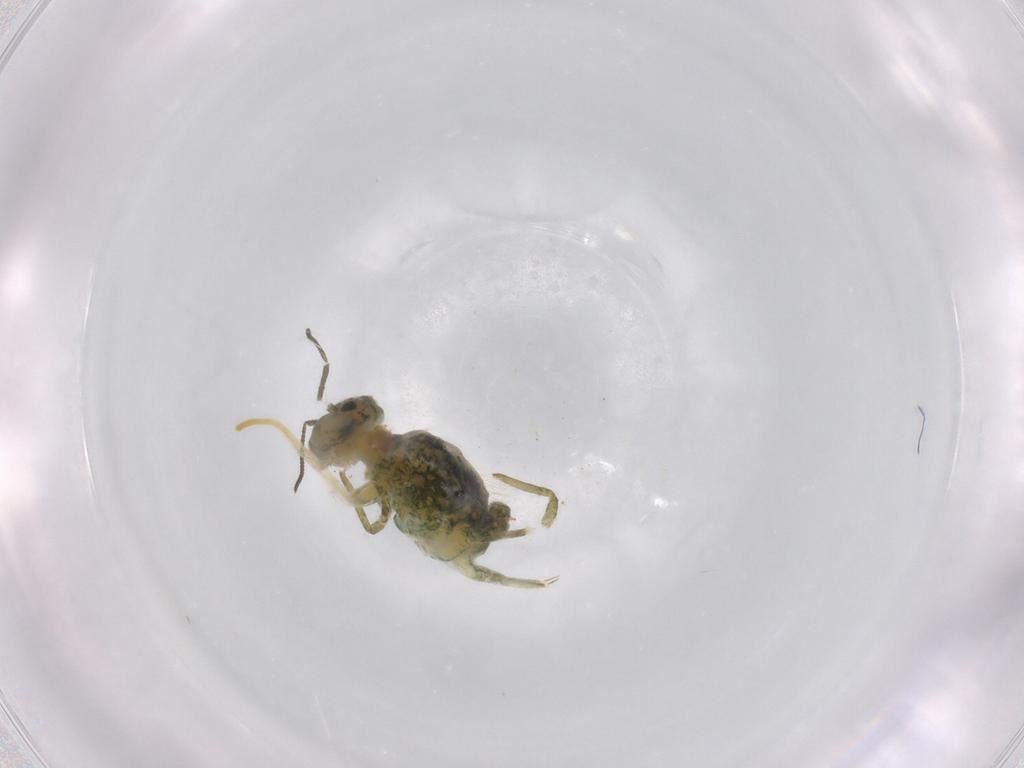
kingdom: Animalia
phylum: Arthropoda
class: Collembola
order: Symphypleona
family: Sminthuridae
